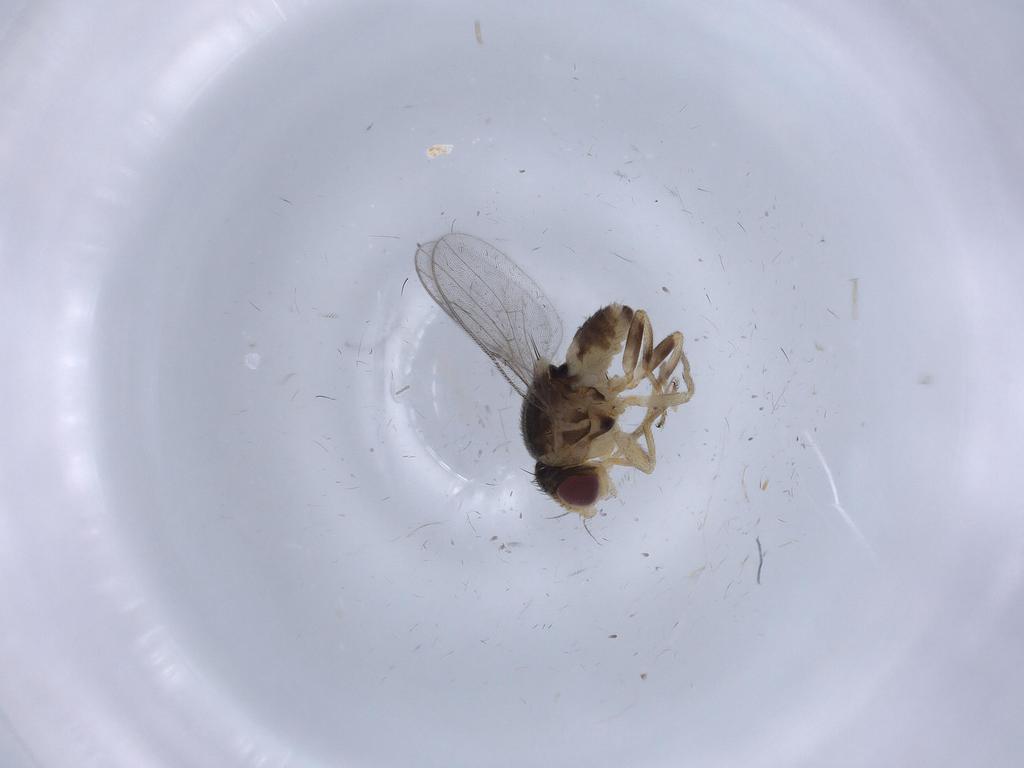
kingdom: Animalia
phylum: Arthropoda
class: Insecta
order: Diptera
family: Chloropidae
